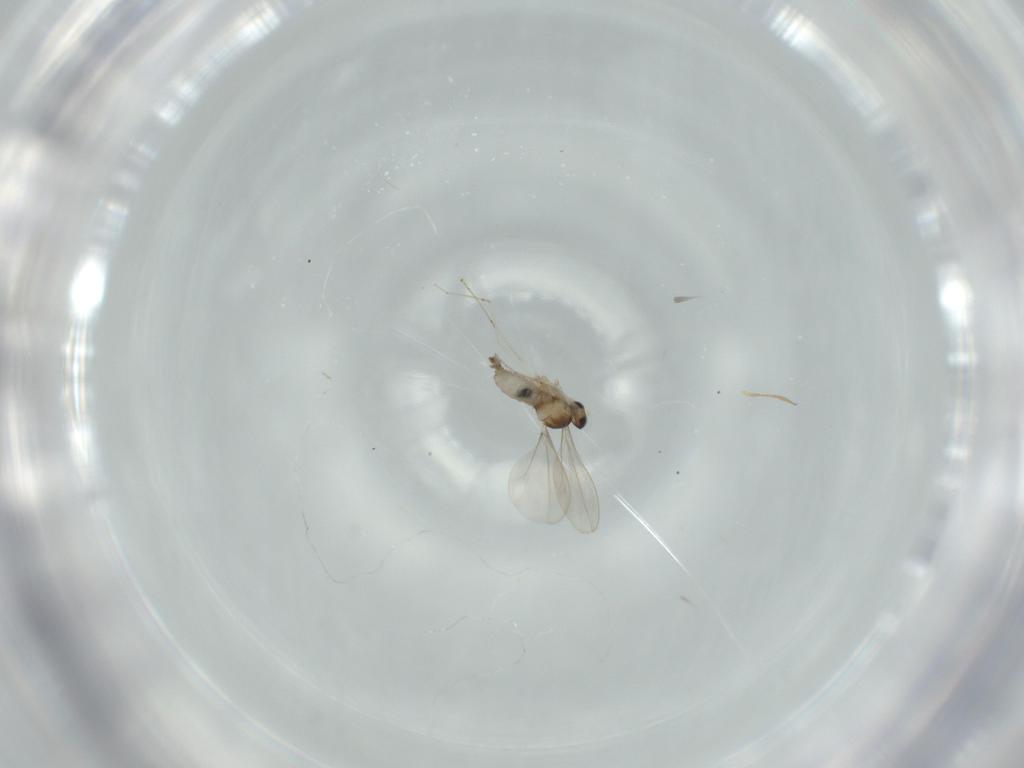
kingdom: Animalia
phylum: Arthropoda
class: Insecta
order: Diptera
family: Cecidomyiidae
